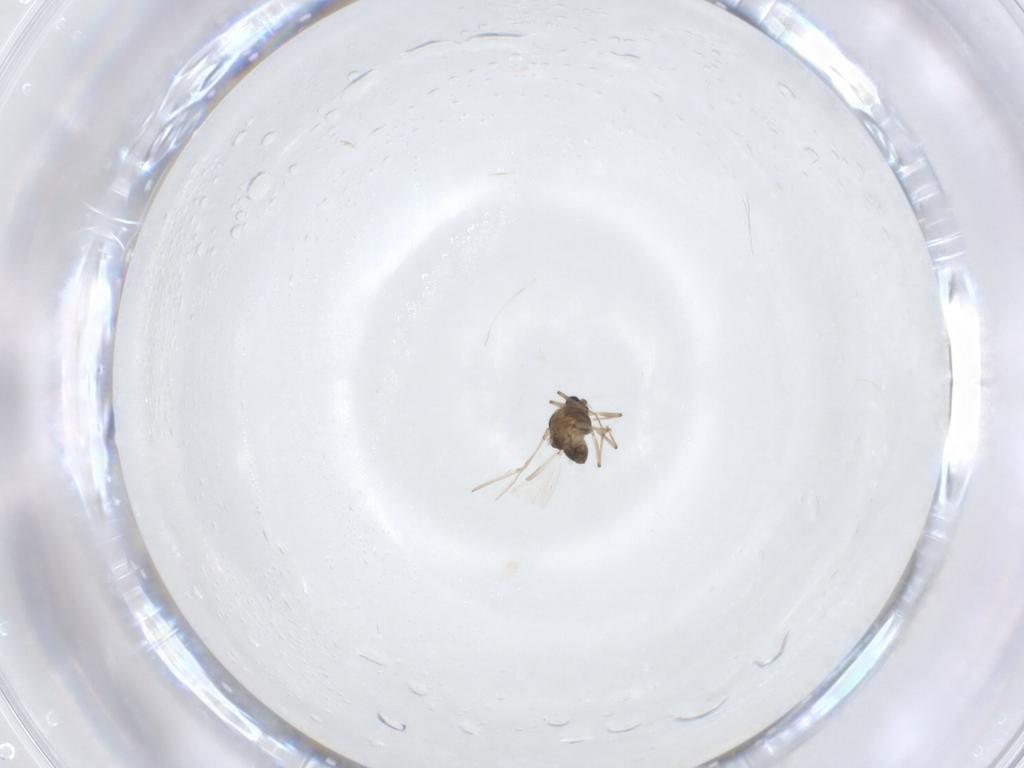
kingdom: Animalia
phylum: Arthropoda
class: Insecta
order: Diptera
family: Chironomidae
